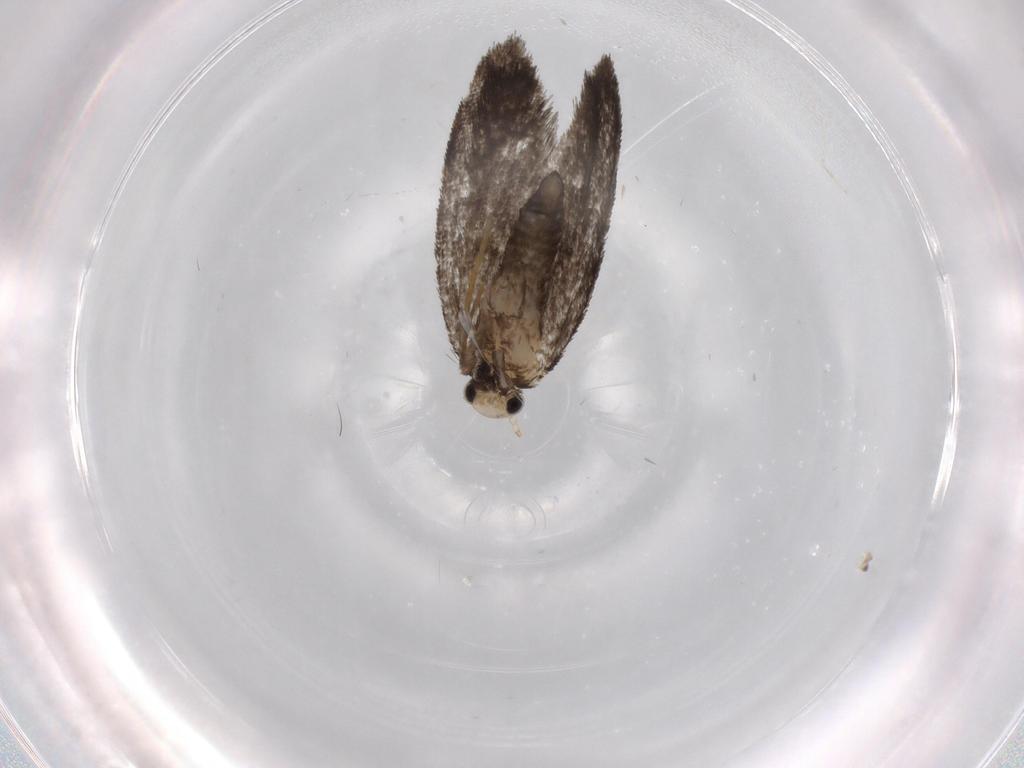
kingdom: Animalia
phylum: Arthropoda
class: Insecta
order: Lepidoptera
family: Psychidae
